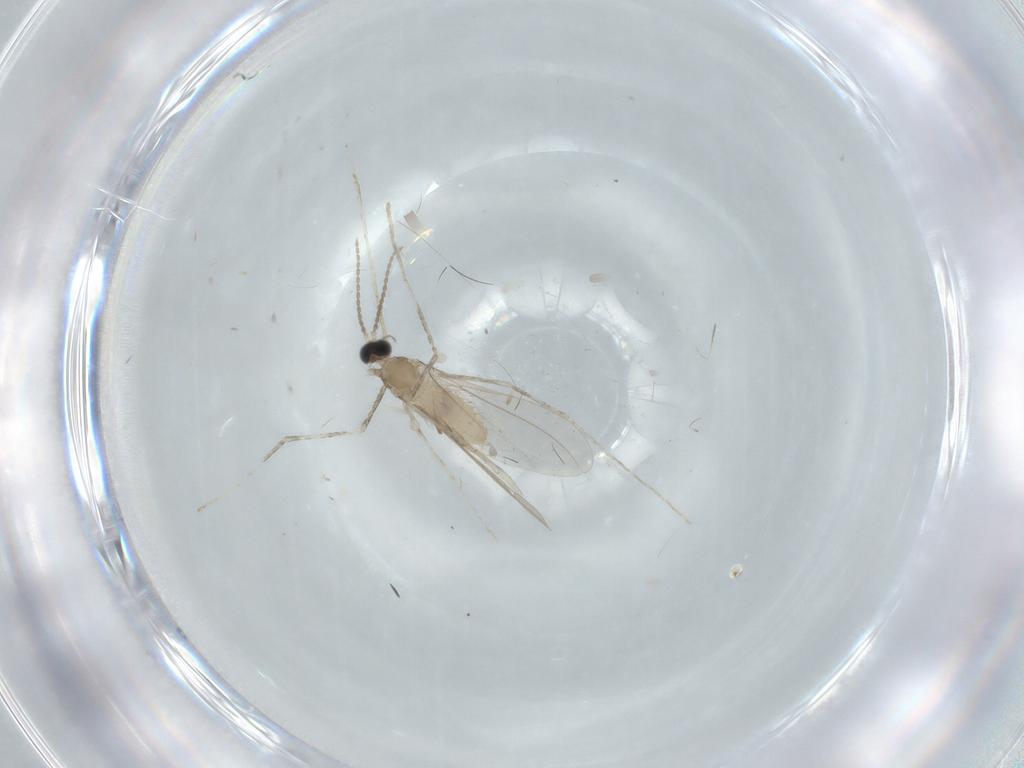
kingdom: Animalia
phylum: Arthropoda
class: Insecta
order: Diptera
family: Cecidomyiidae
